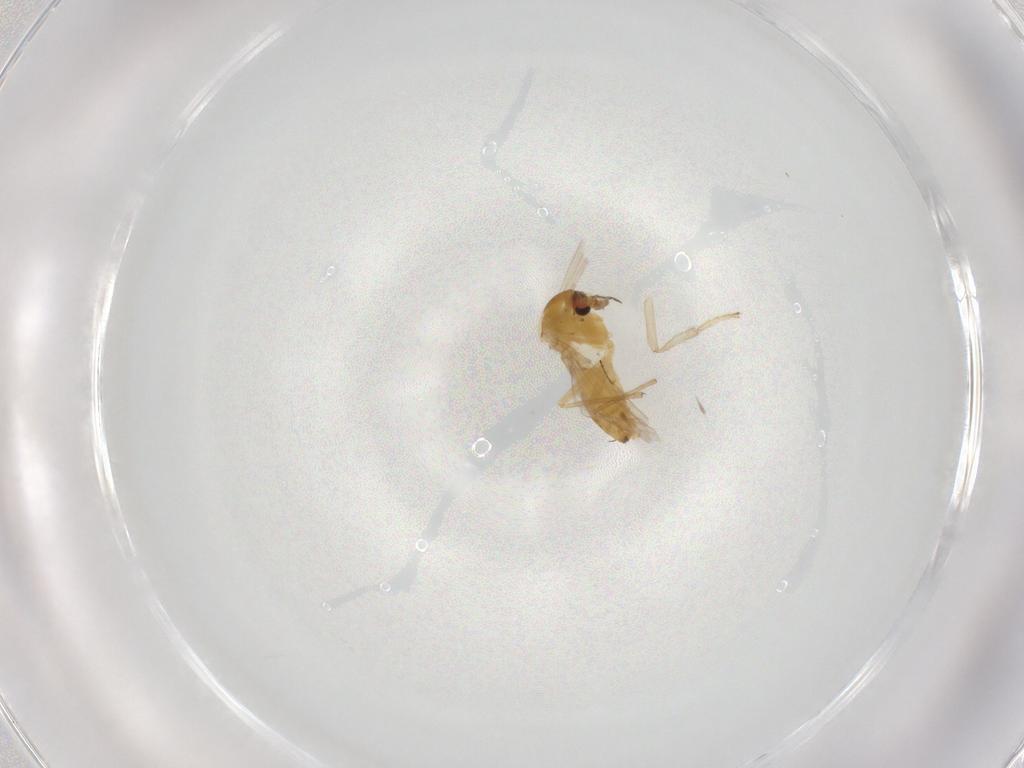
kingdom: Animalia
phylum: Arthropoda
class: Insecta
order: Diptera
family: Chironomidae
